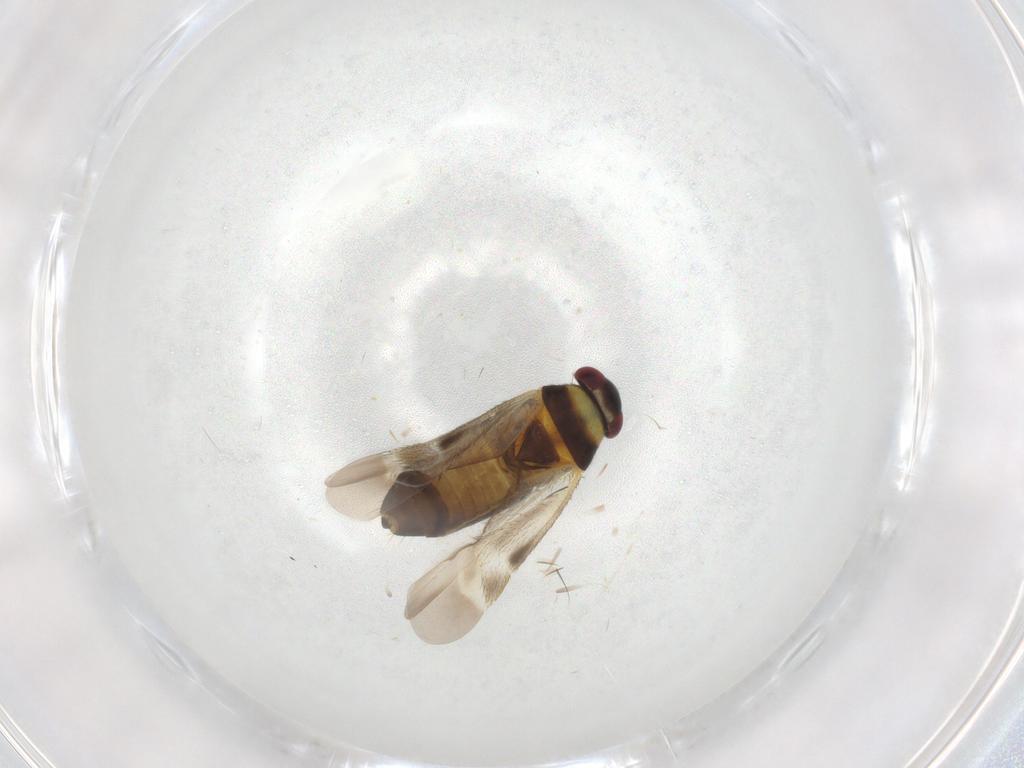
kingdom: Animalia
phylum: Arthropoda
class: Insecta
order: Hemiptera
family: Miridae
